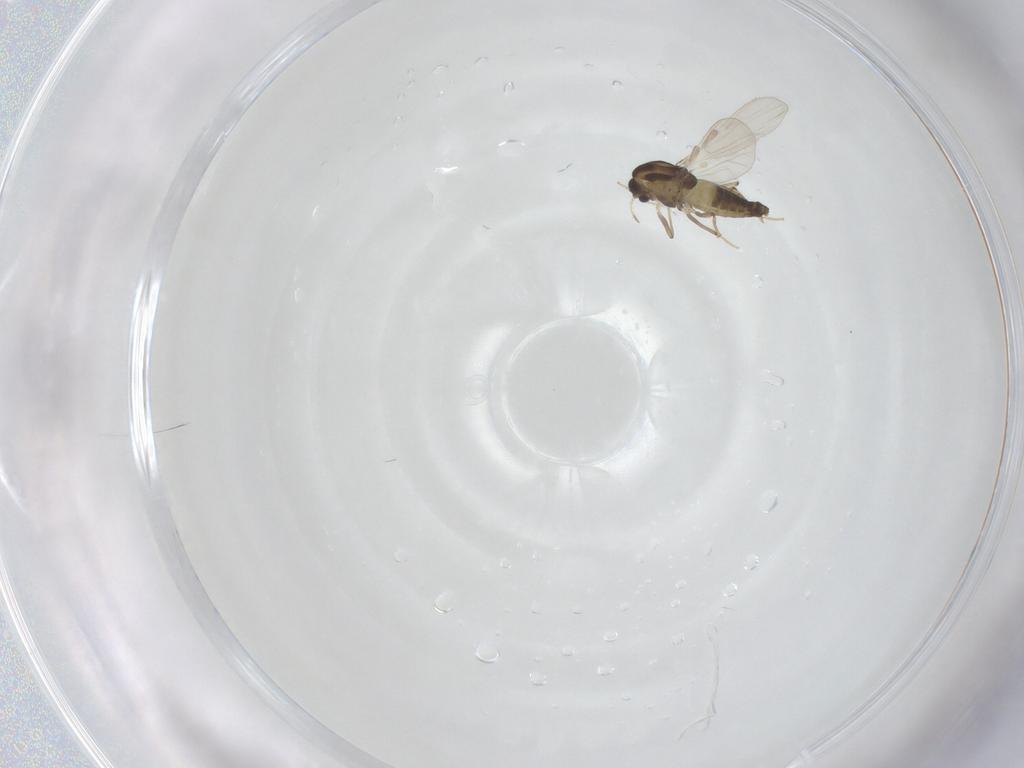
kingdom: Animalia
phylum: Arthropoda
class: Insecta
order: Diptera
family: Chironomidae
